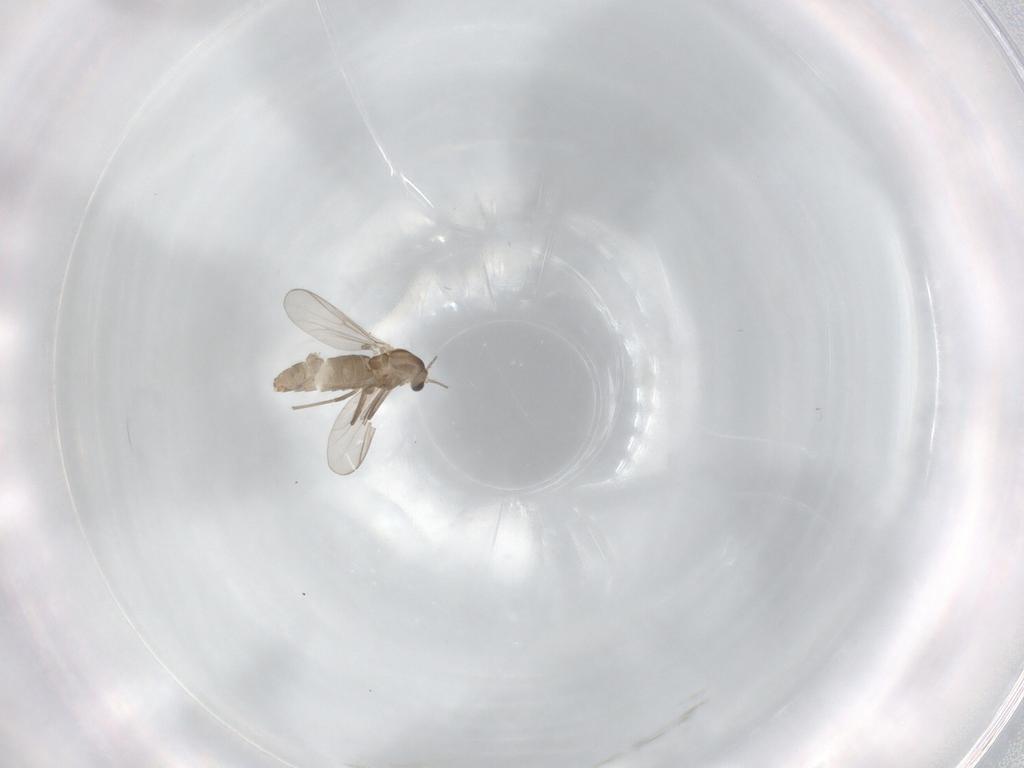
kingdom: Animalia
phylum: Arthropoda
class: Insecta
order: Diptera
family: Chironomidae
